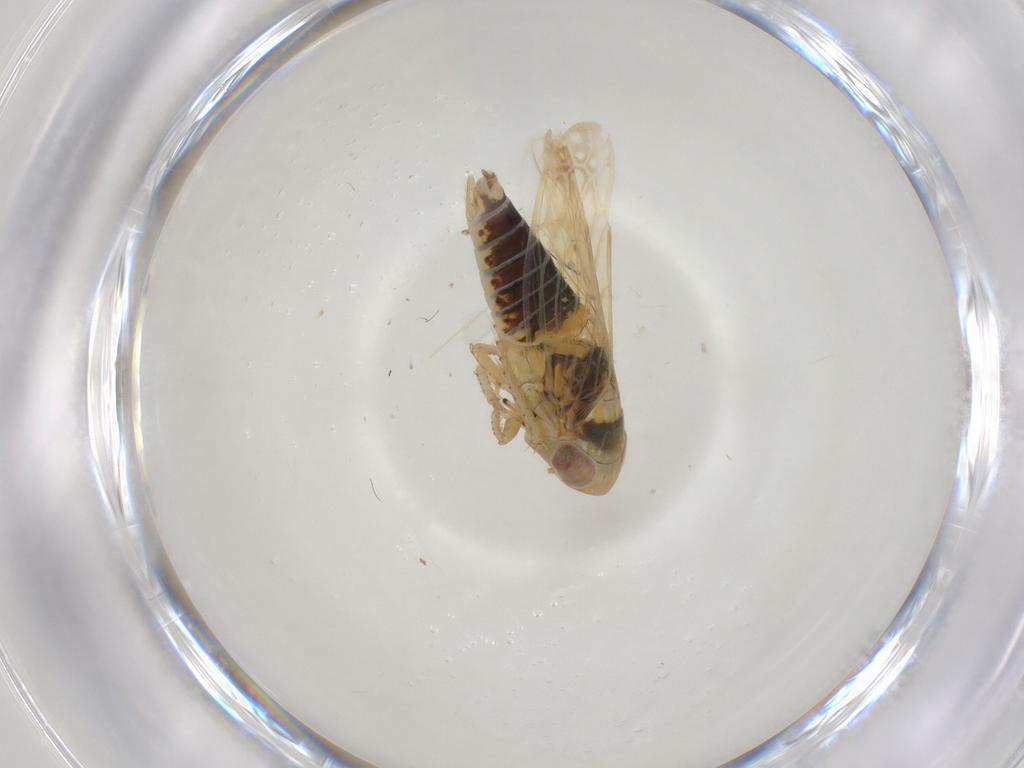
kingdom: Animalia
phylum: Arthropoda
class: Insecta
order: Hemiptera
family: Cicadellidae
